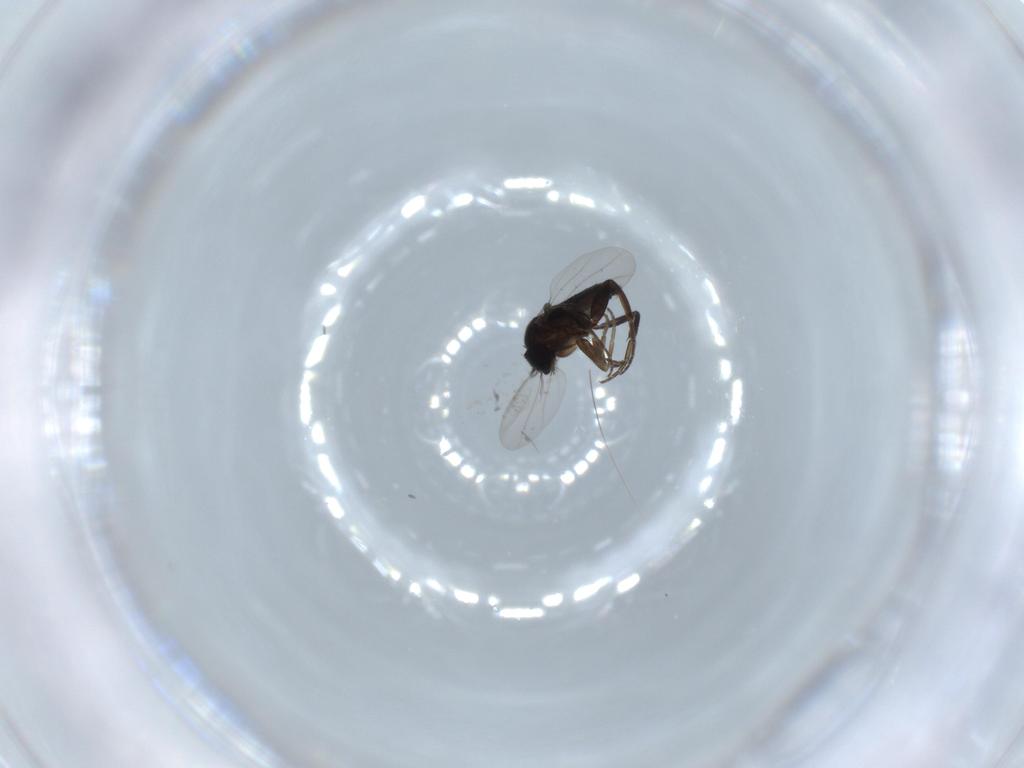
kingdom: Animalia
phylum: Arthropoda
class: Insecta
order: Diptera
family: Phoridae
